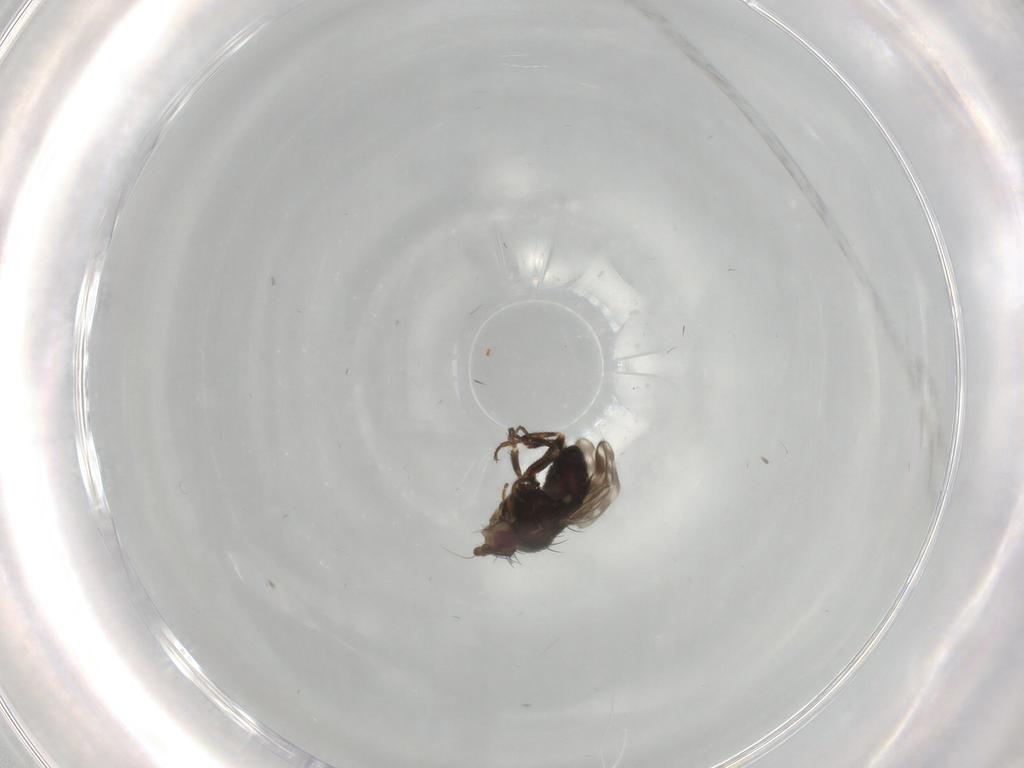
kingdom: Animalia
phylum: Arthropoda
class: Insecta
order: Diptera
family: Sphaeroceridae
